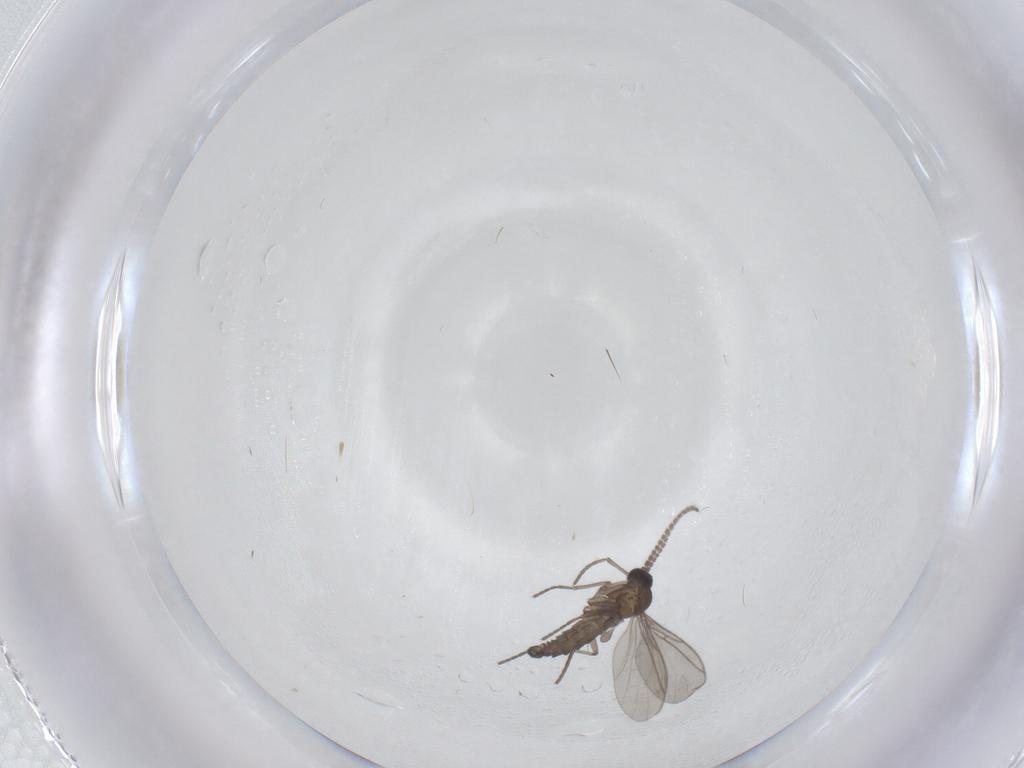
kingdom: Animalia
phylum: Arthropoda
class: Insecta
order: Diptera
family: Sciaridae
